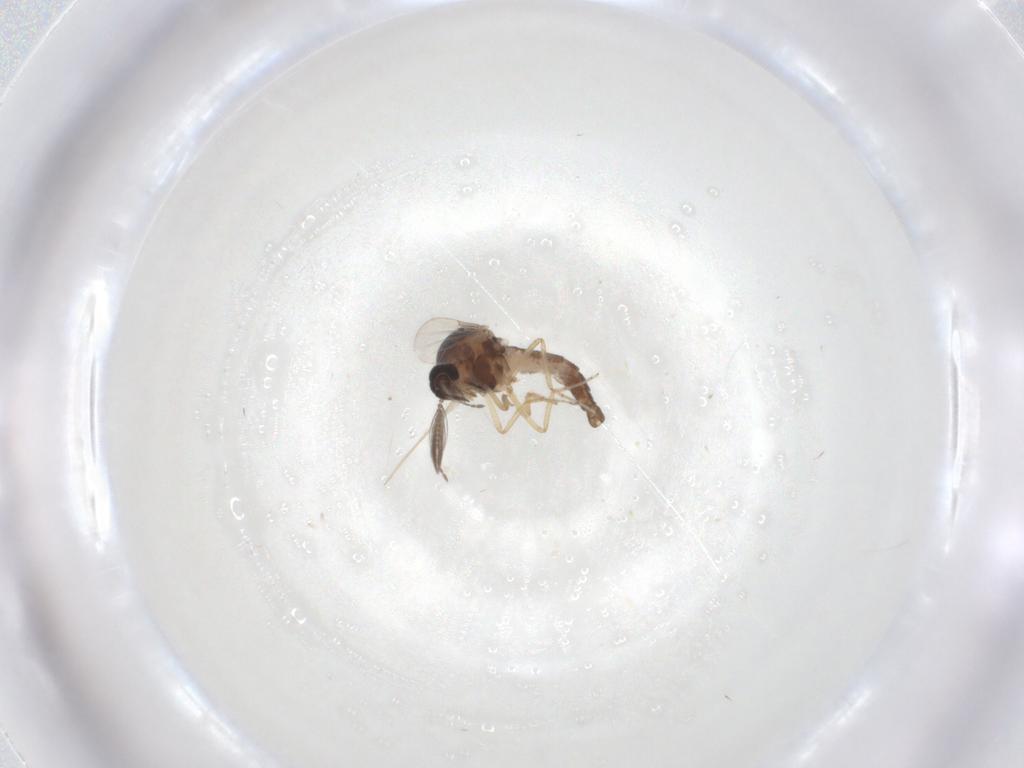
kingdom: Animalia
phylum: Arthropoda
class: Insecta
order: Diptera
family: Ceratopogonidae
